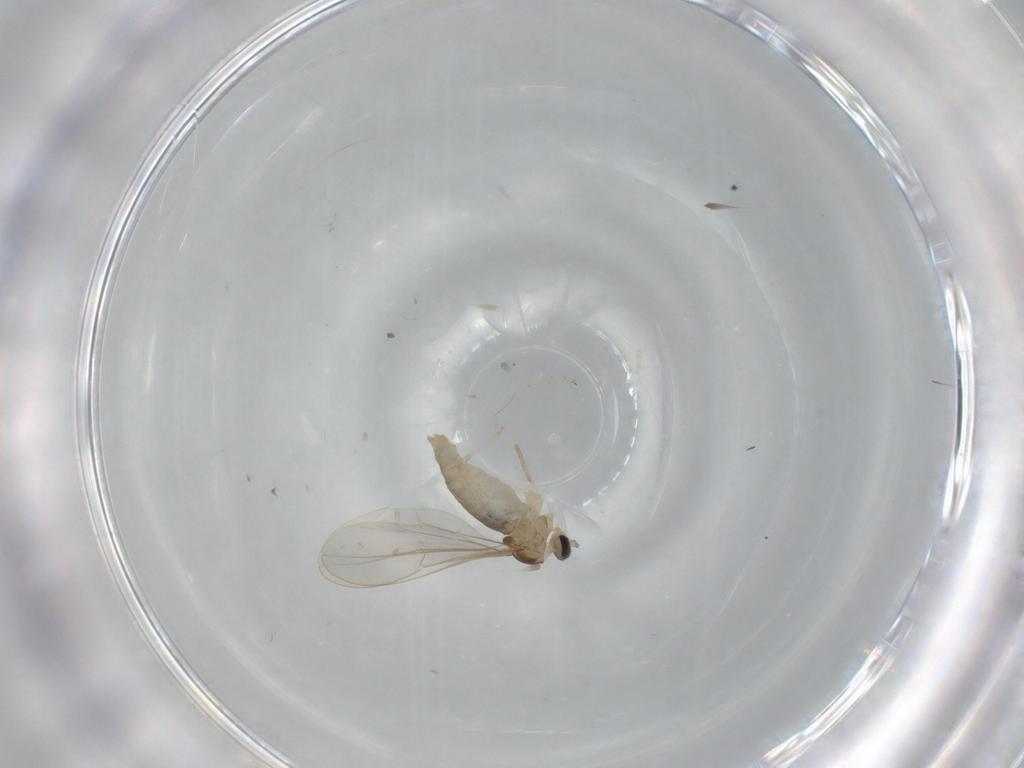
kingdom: Animalia
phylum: Arthropoda
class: Insecta
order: Diptera
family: Cecidomyiidae
